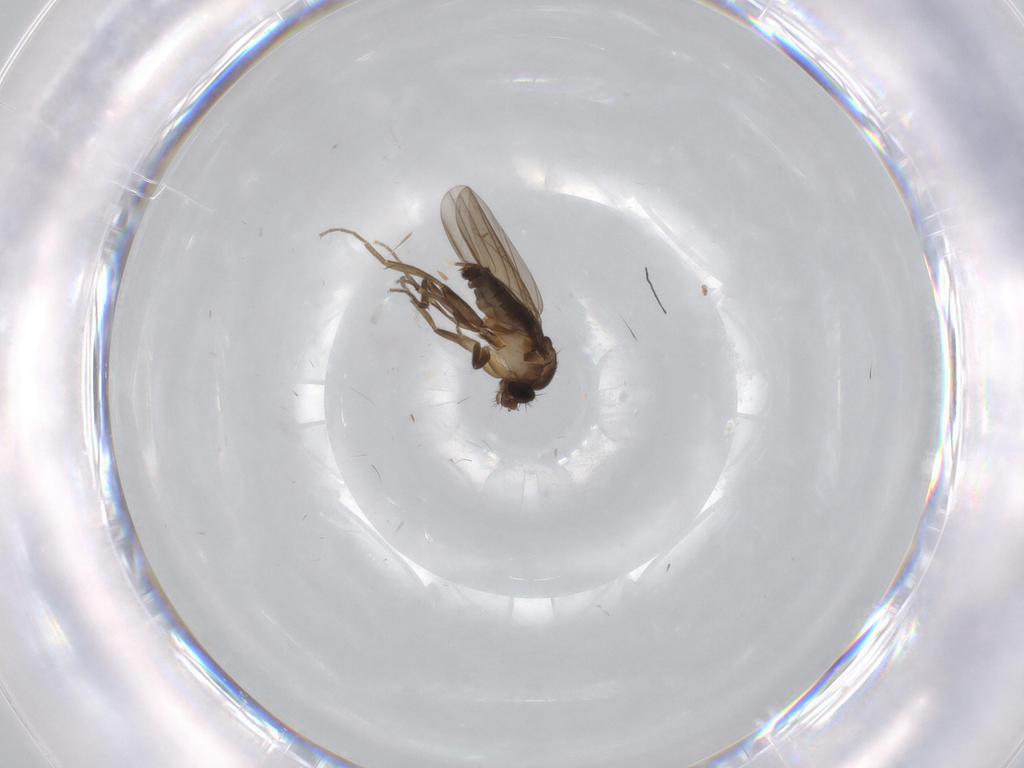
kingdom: Animalia
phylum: Arthropoda
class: Insecta
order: Diptera
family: Phoridae
